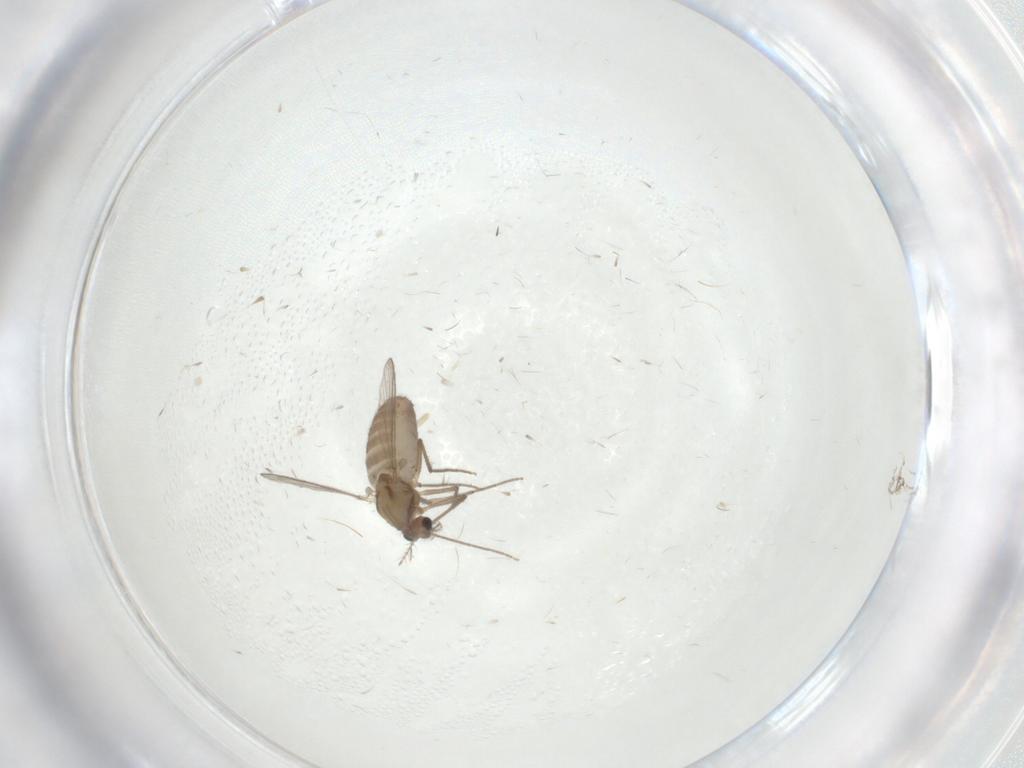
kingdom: Animalia
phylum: Arthropoda
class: Insecta
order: Diptera
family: Chironomidae
